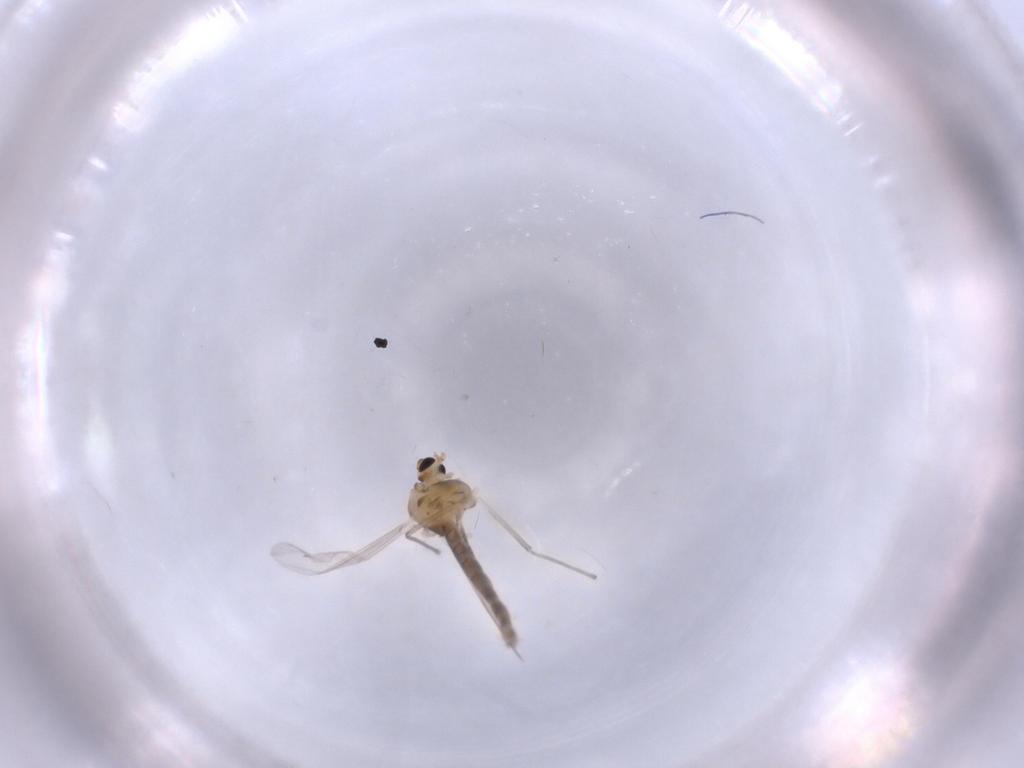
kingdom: Animalia
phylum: Arthropoda
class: Insecta
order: Diptera
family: Chironomidae
